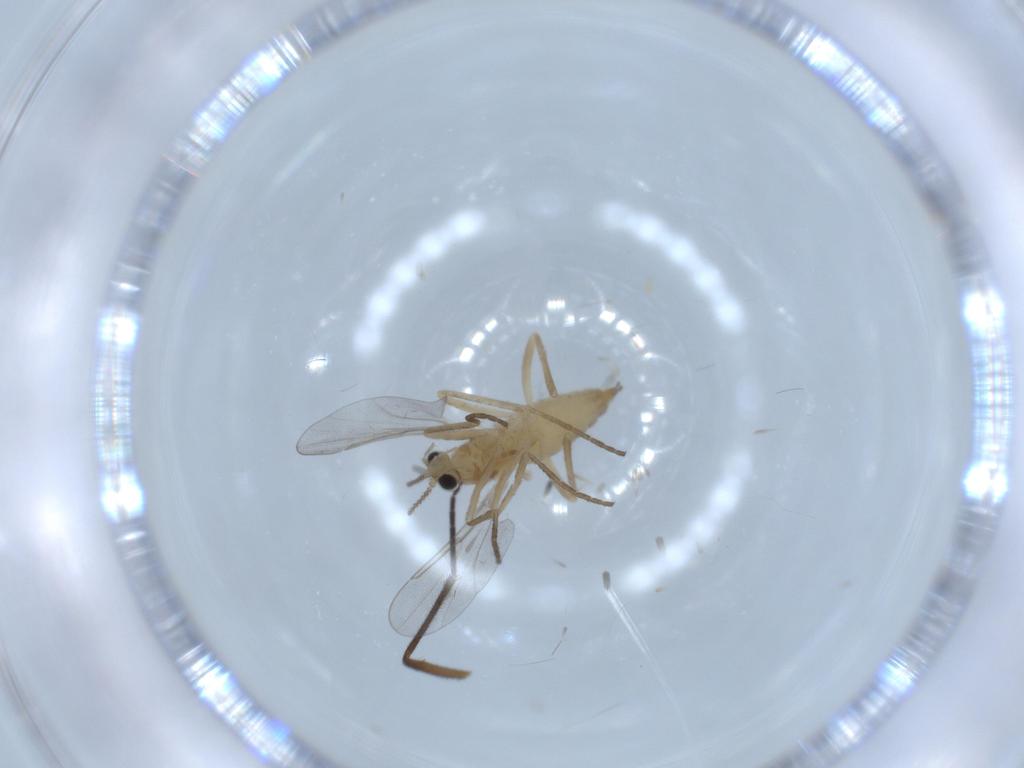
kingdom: Animalia
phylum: Arthropoda
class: Insecta
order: Diptera
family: Cecidomyiidae
